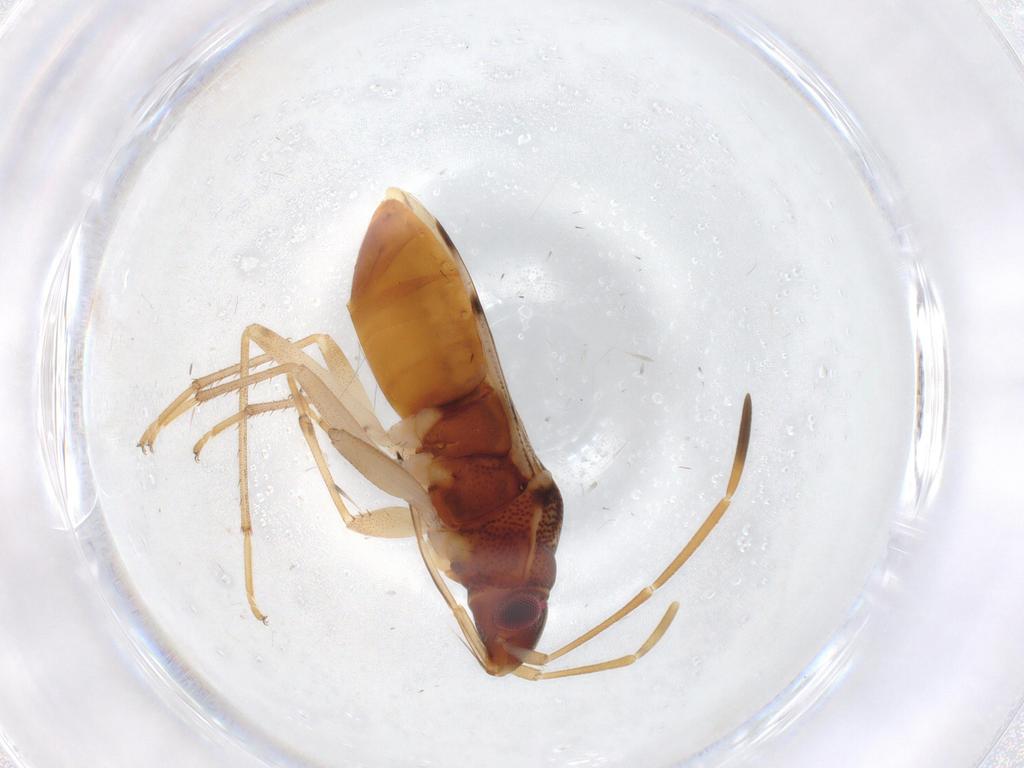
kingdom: Animalia
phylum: Arthropoda
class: Insecta
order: Hemiptera
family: Rhyparochromidae
